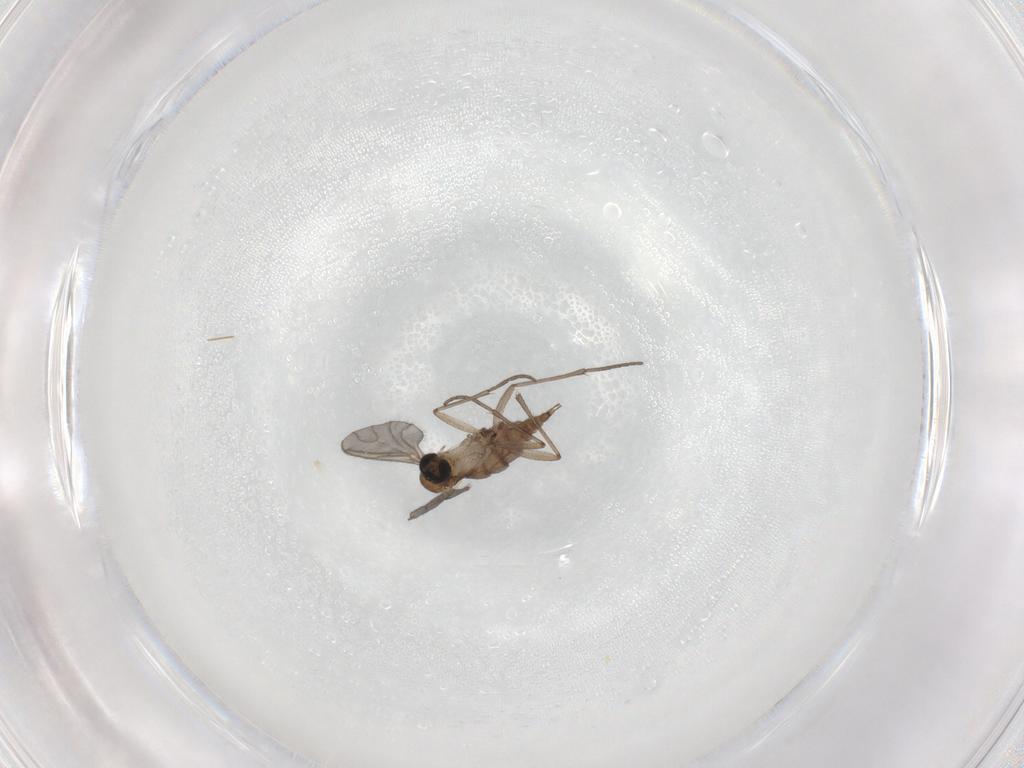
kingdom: Animalia
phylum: Arthropoda
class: Insecta
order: Diptera
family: Sciaridae
